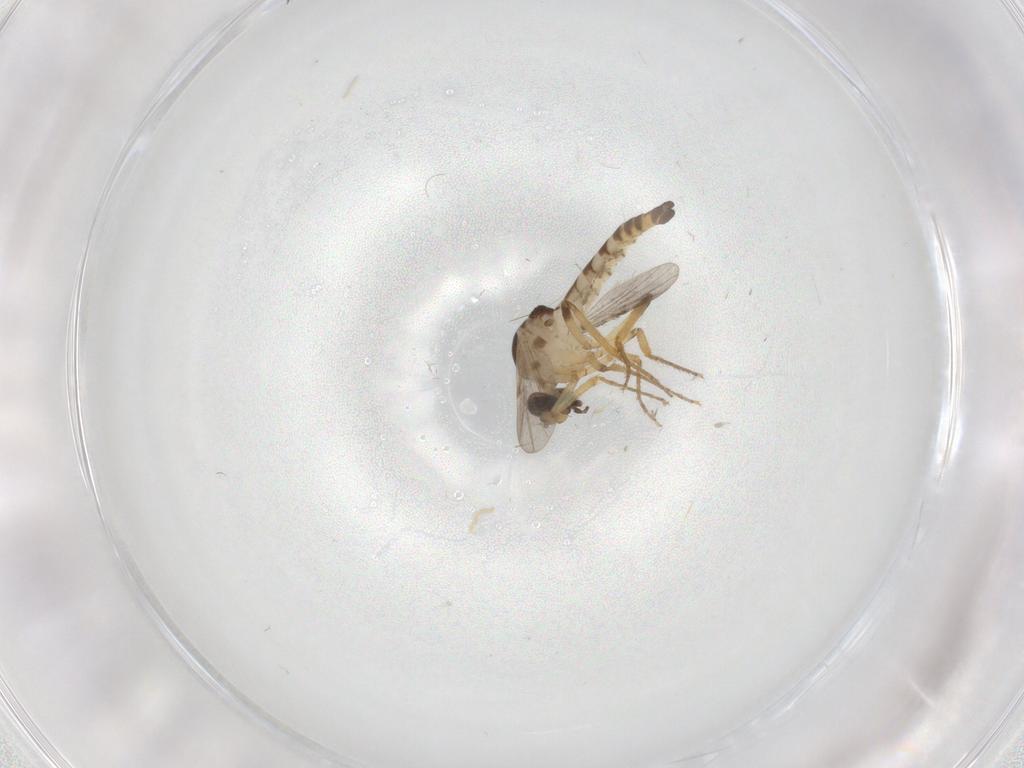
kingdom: Animalia
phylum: Arthropoda
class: Insecta
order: Diptera
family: Ceratopogonidae
